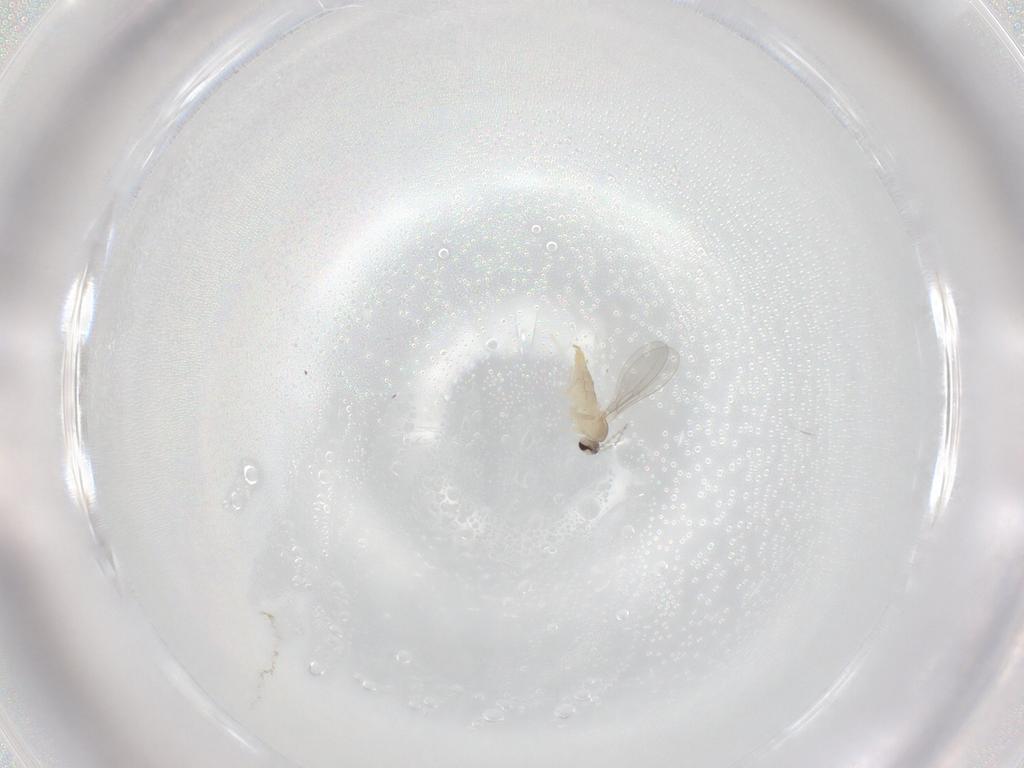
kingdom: Animalia
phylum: Arthropoda
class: Insecta
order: Diptera
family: Cecidomyiidae
